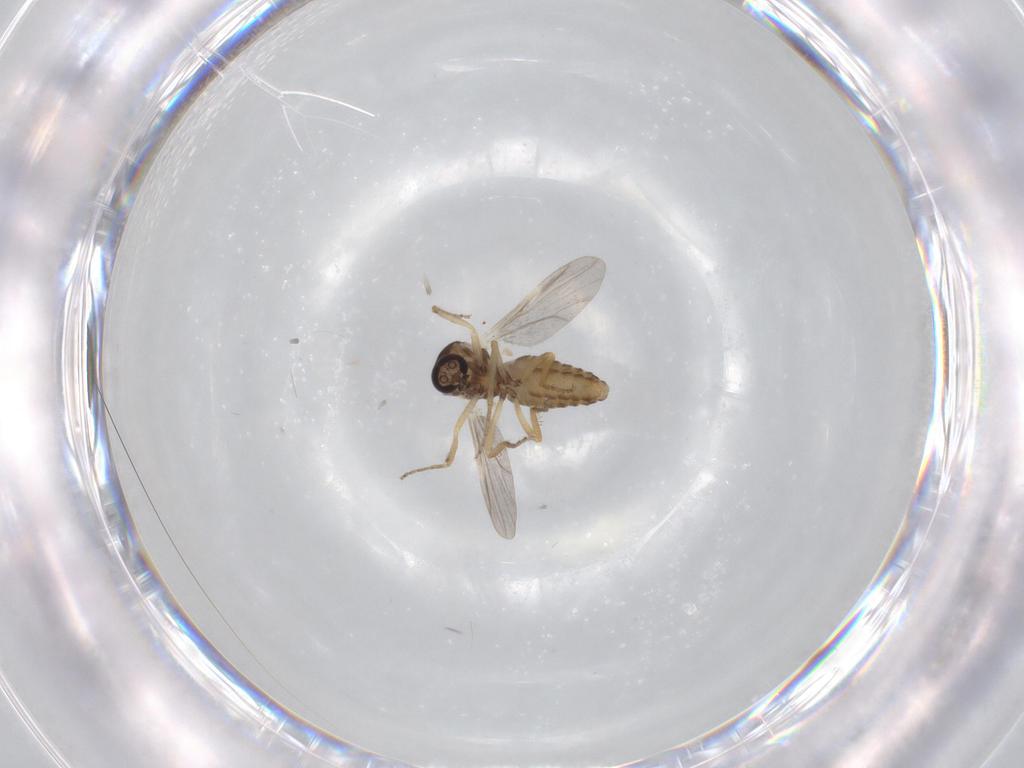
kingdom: Animalia
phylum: Arthropoda
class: Insecta
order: Diptera
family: Ceratopogonidae
